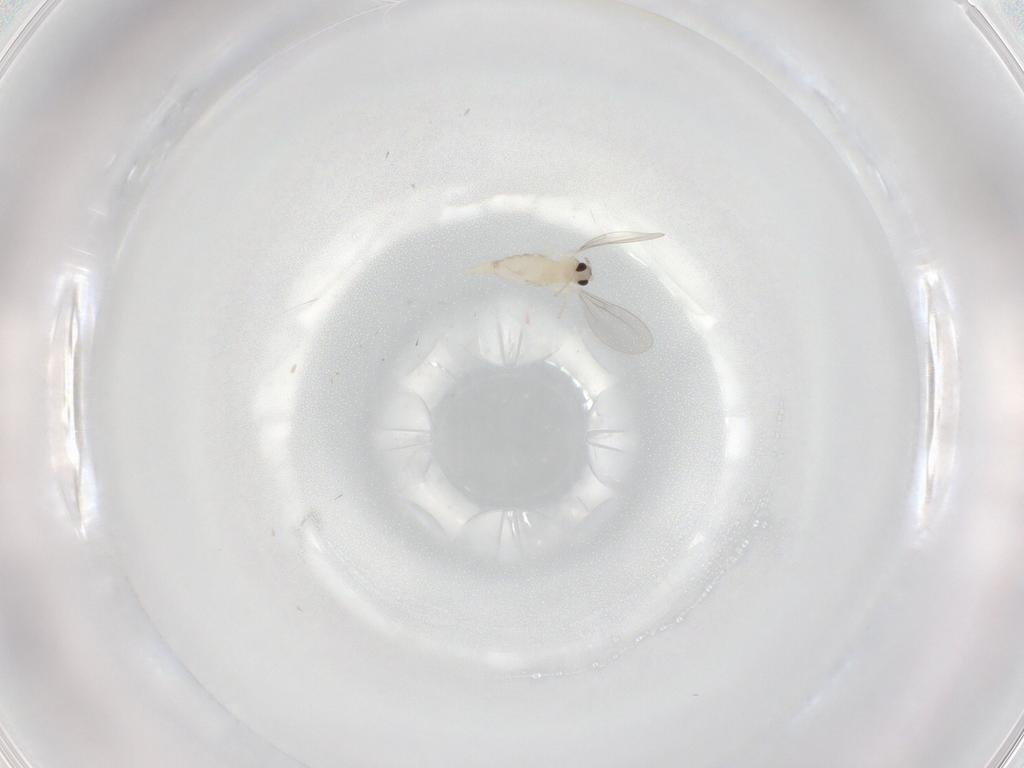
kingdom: Animalia
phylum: Arthropoda
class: Insecta
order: Diptera
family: Cecidomyiidae
